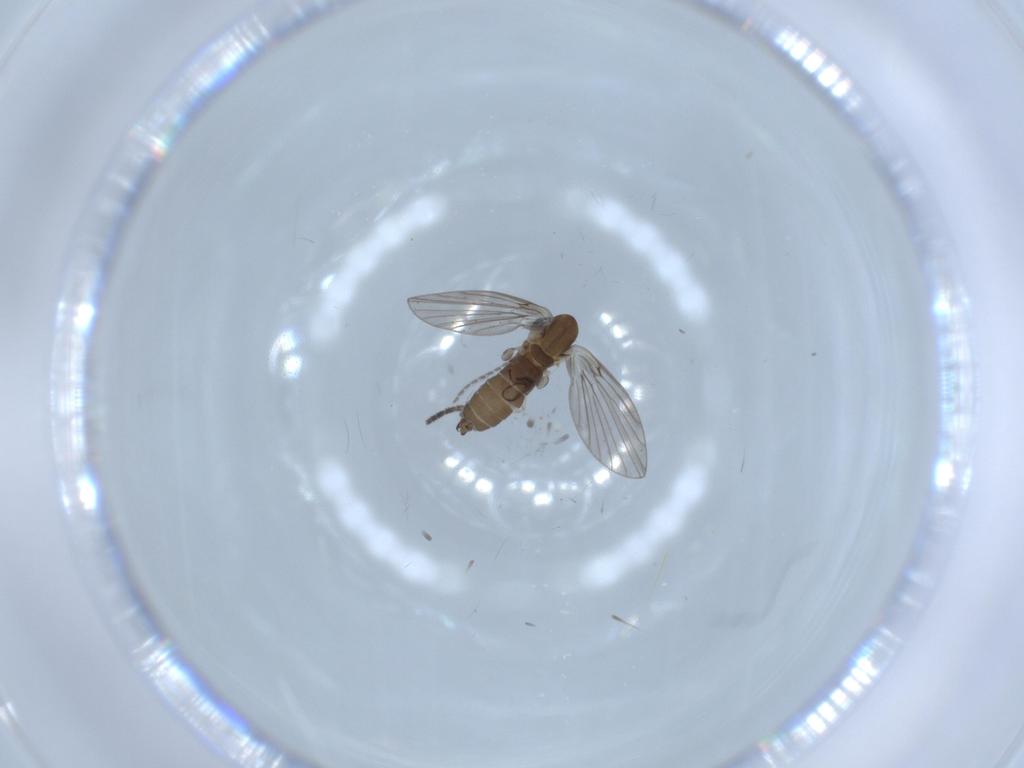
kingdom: Animalia
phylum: Arthropoda
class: Insecta
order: Diptera
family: Psychodidae
